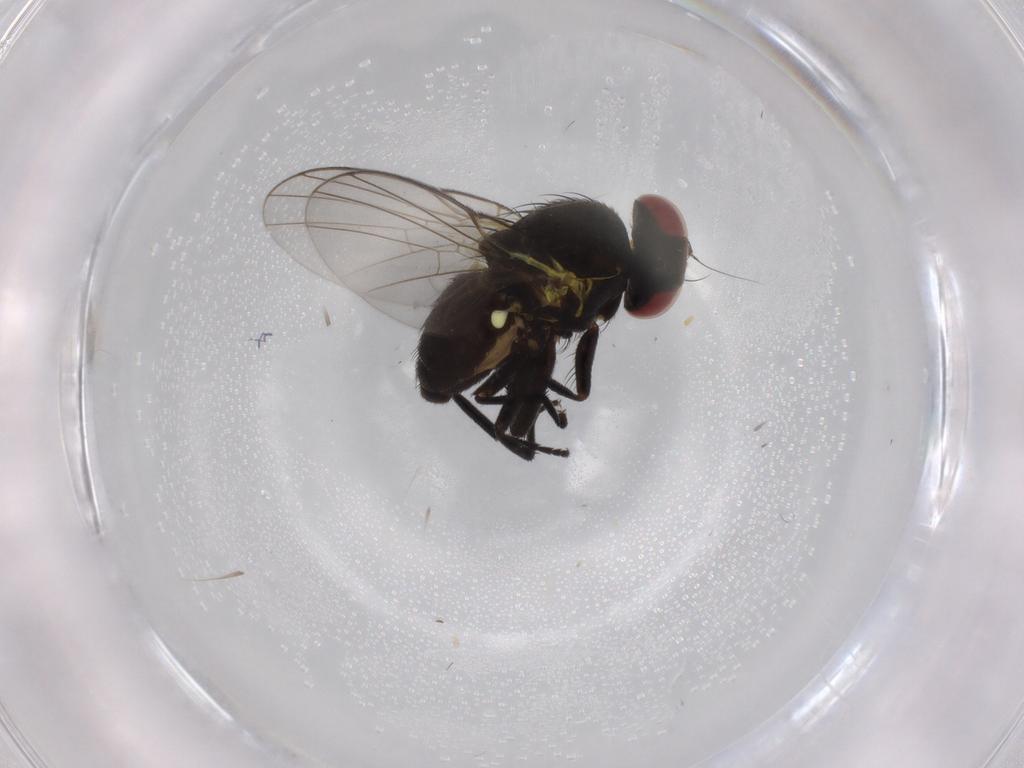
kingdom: Animalia
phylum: Arthropoda
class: Insecta
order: Diptera
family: Agromyzidae
